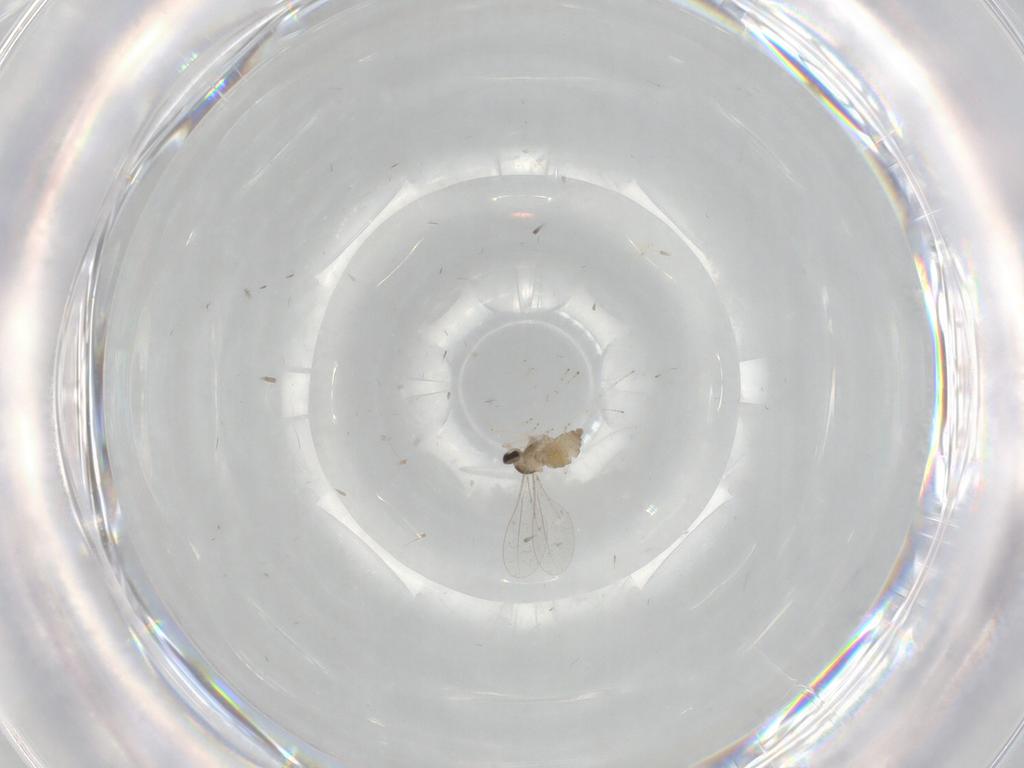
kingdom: Animalia
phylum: Arthropoda
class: Insecta
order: Diptera
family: Cecidomyiidae
